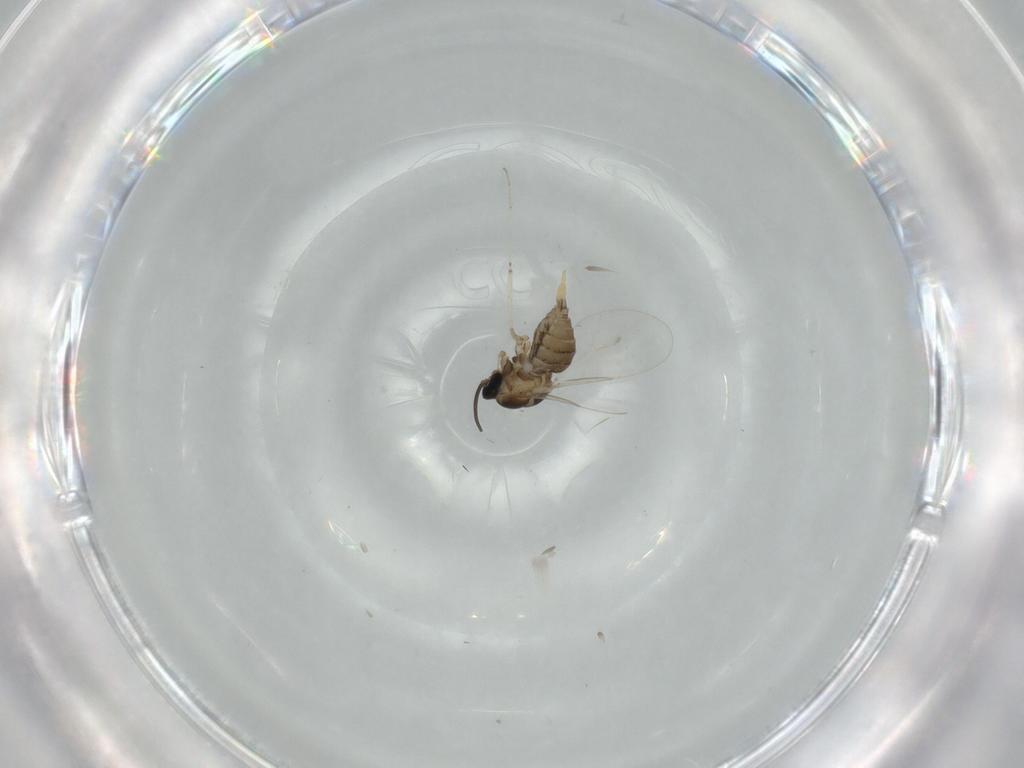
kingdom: Animalia
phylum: Arthropoda
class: Insecta
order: Diptera
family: Cecidomyiidae
